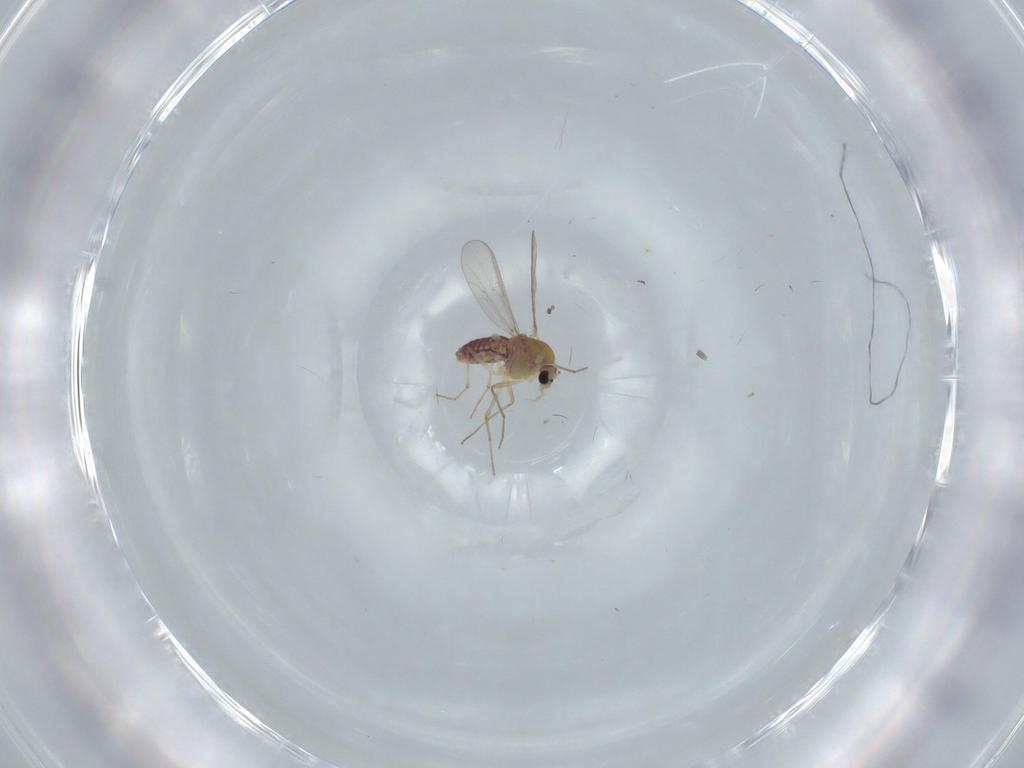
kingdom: Animalia
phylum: Arthropoda
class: Insecta
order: Diptera
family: Chironomidae
